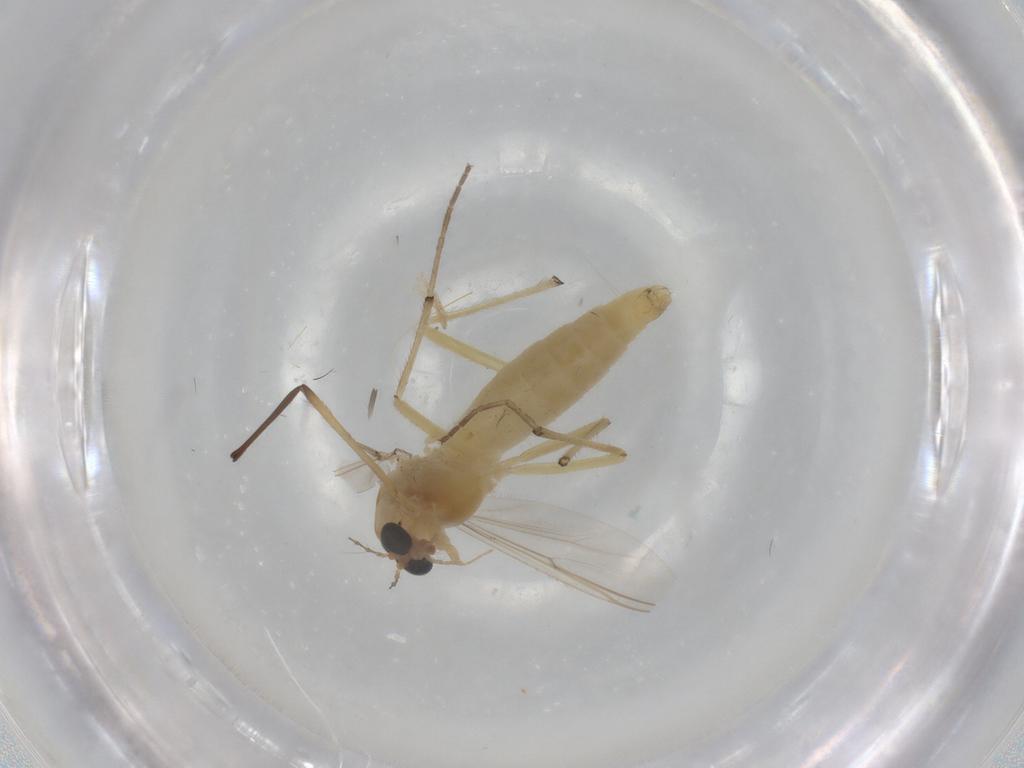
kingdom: Animalia
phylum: Arthropoda
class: Insecta
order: Diptera
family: Chironomidae
